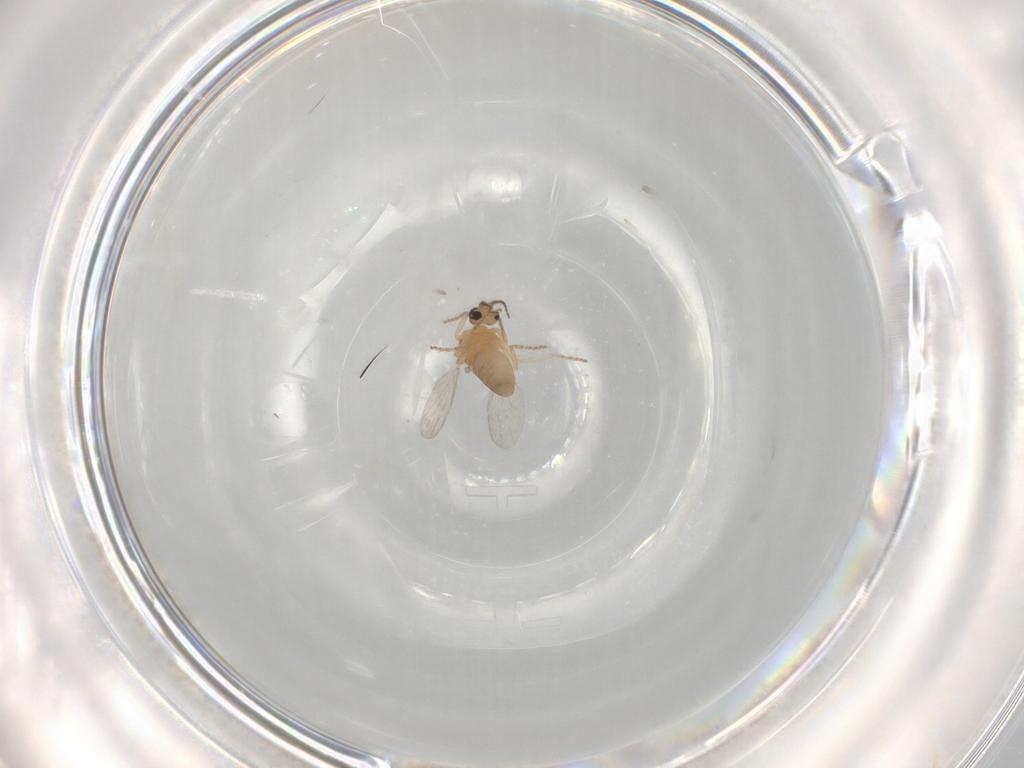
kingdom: Animalia
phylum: Arthropoda
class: Insecta
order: Diptera
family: Ceratopogonidae
